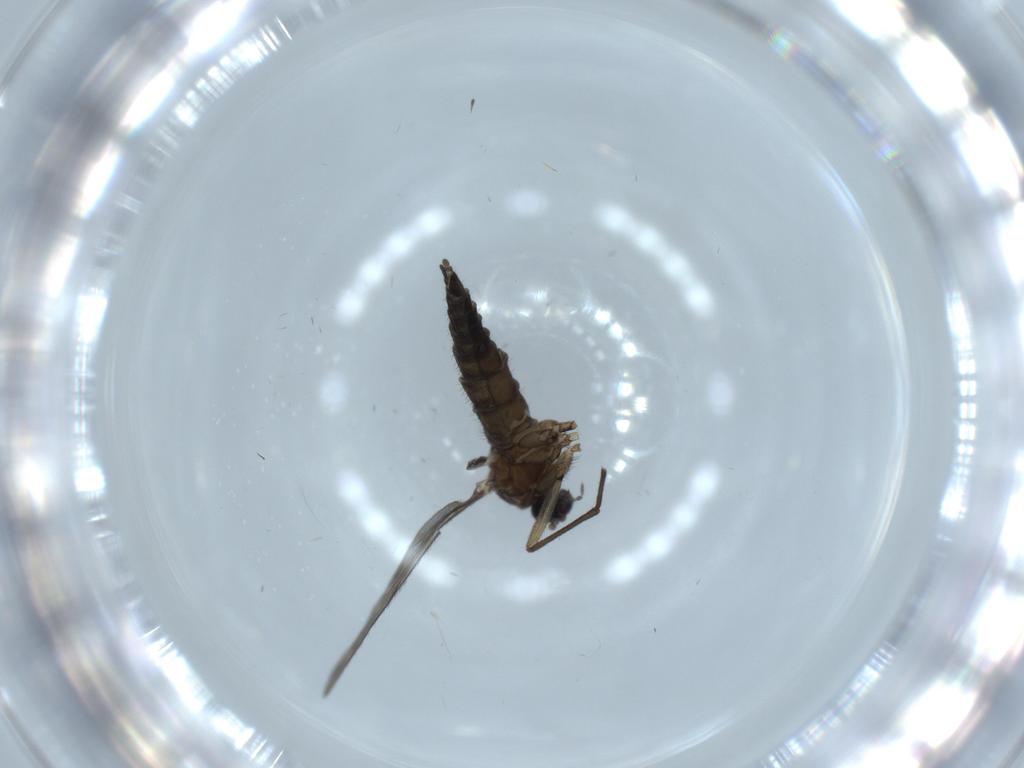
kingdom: Animalia
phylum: Arthropoda
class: Insecta
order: Diptera
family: Sciaridae
